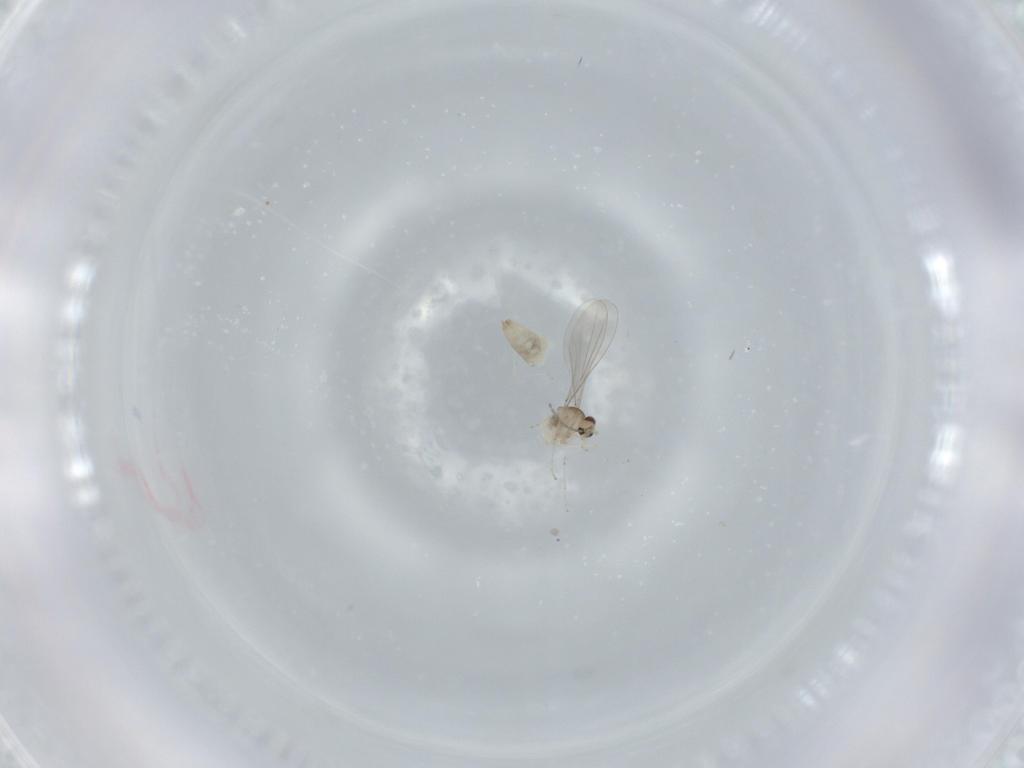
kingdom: Animalia
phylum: Arthropoda
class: Insecta
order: Diptera
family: Cecidomyiidae
